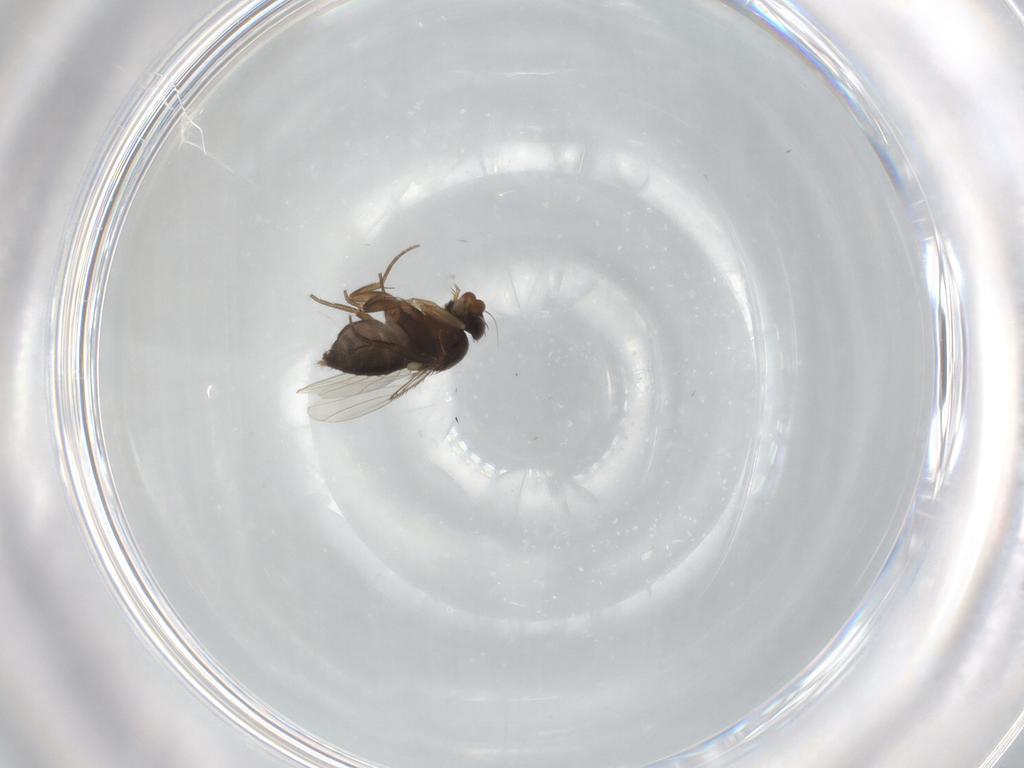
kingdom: Animalia
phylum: Arthropoda
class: Insecta
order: Diptera
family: Phoridae
